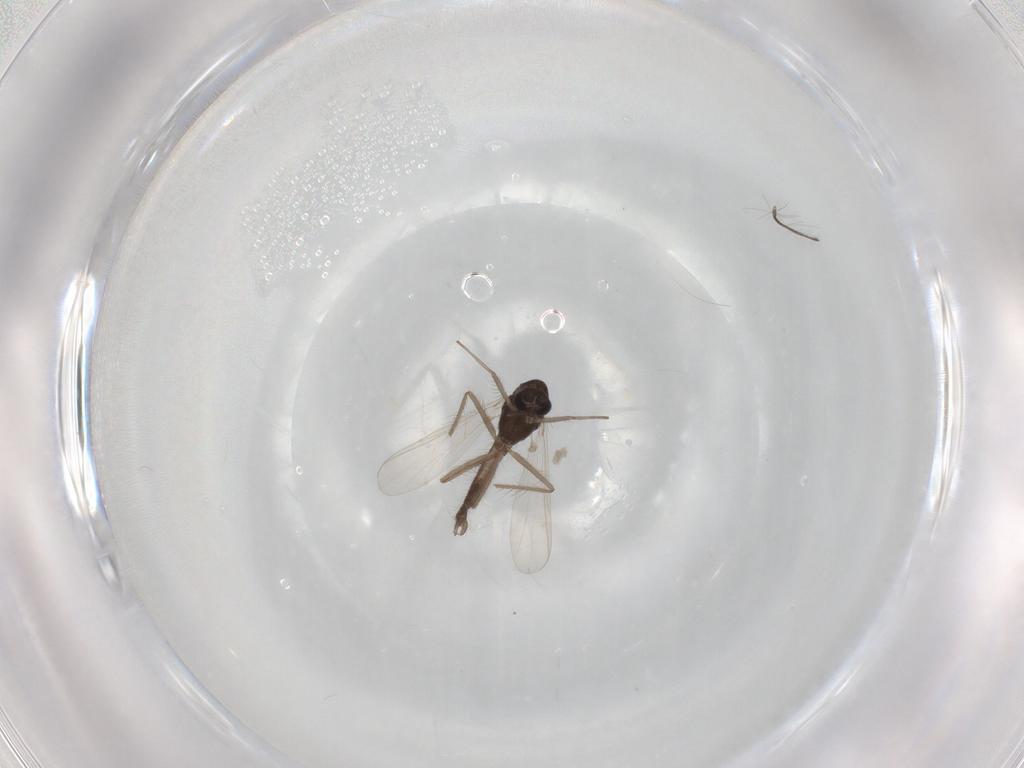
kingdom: Animalia
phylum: Arthropoda
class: Insecta
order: Diptera
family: Chironomidae
